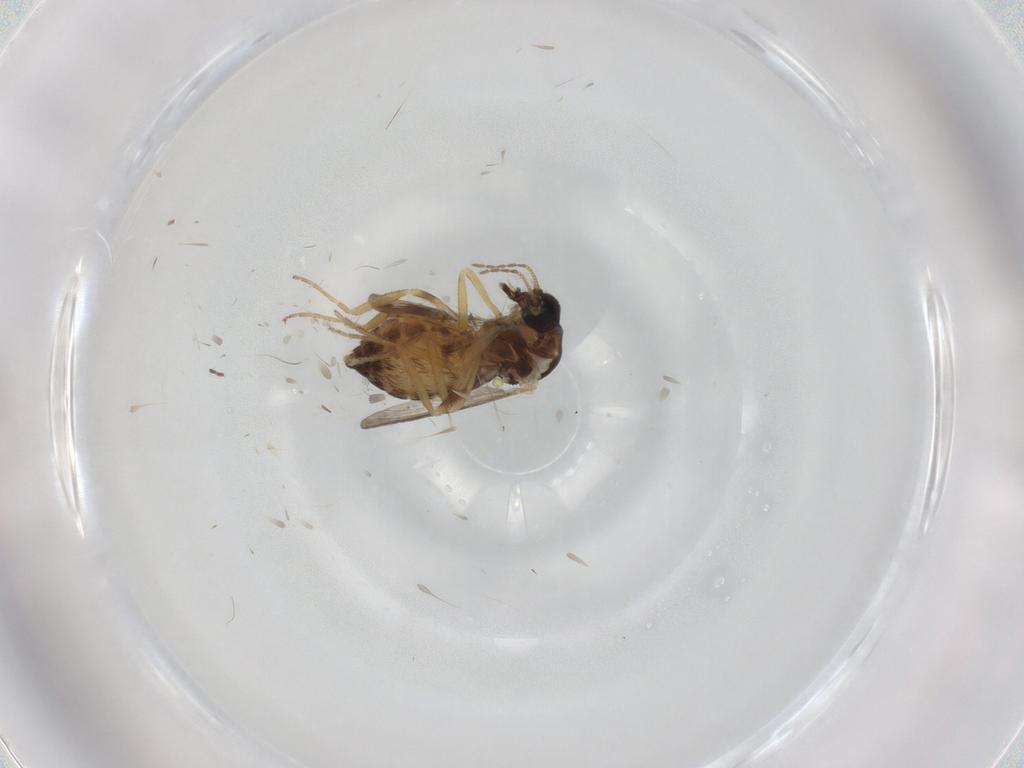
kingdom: Animalia
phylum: Arthropoda
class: Insecta
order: Diptera
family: Ceratopogonidae
